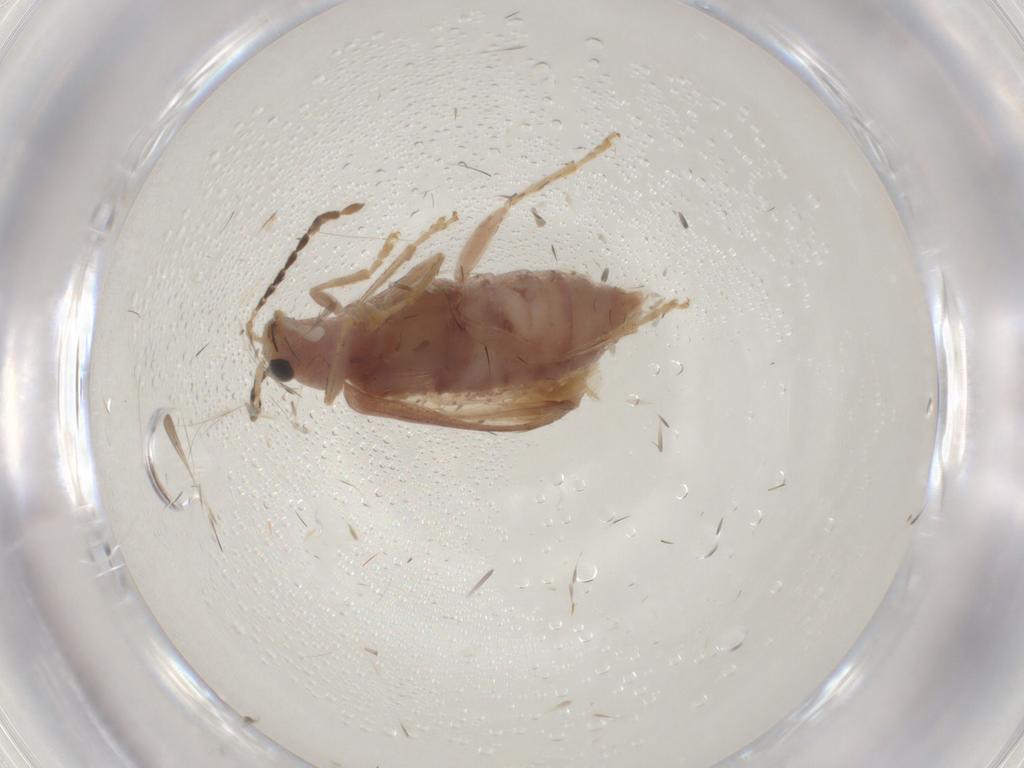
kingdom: Animalia
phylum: Arthropoda
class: Insecta
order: Coleoptera
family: Chrysomelidae
